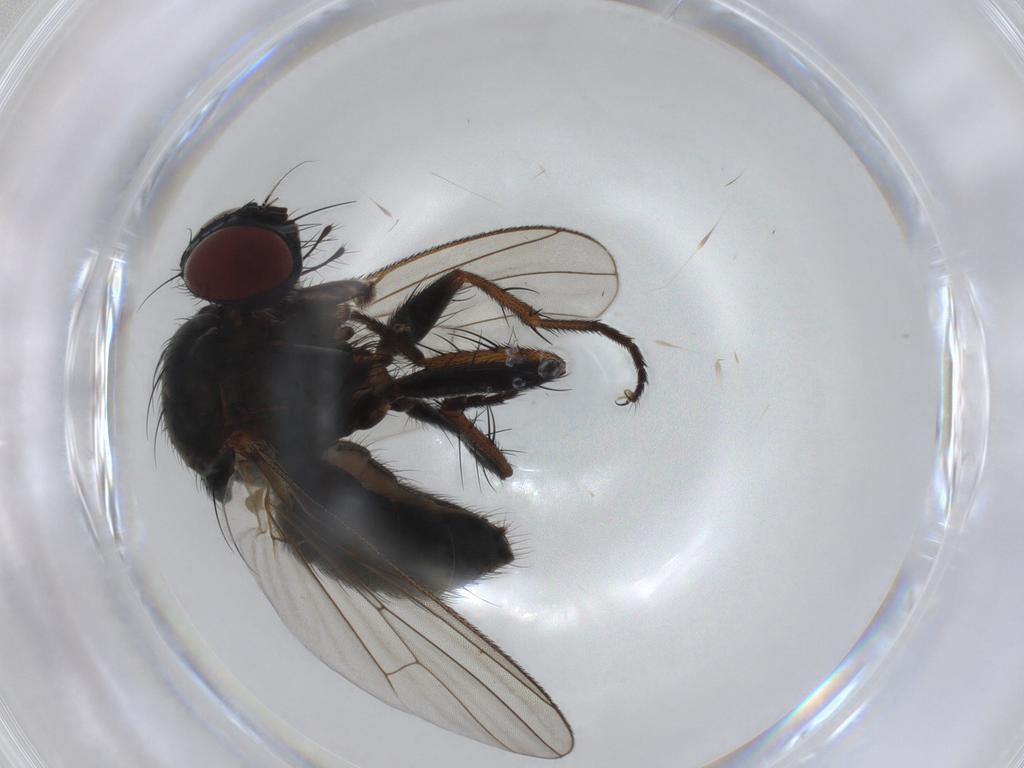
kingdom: Animalia
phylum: Arthropoda
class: Insecta
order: Diptera
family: Muscidae
